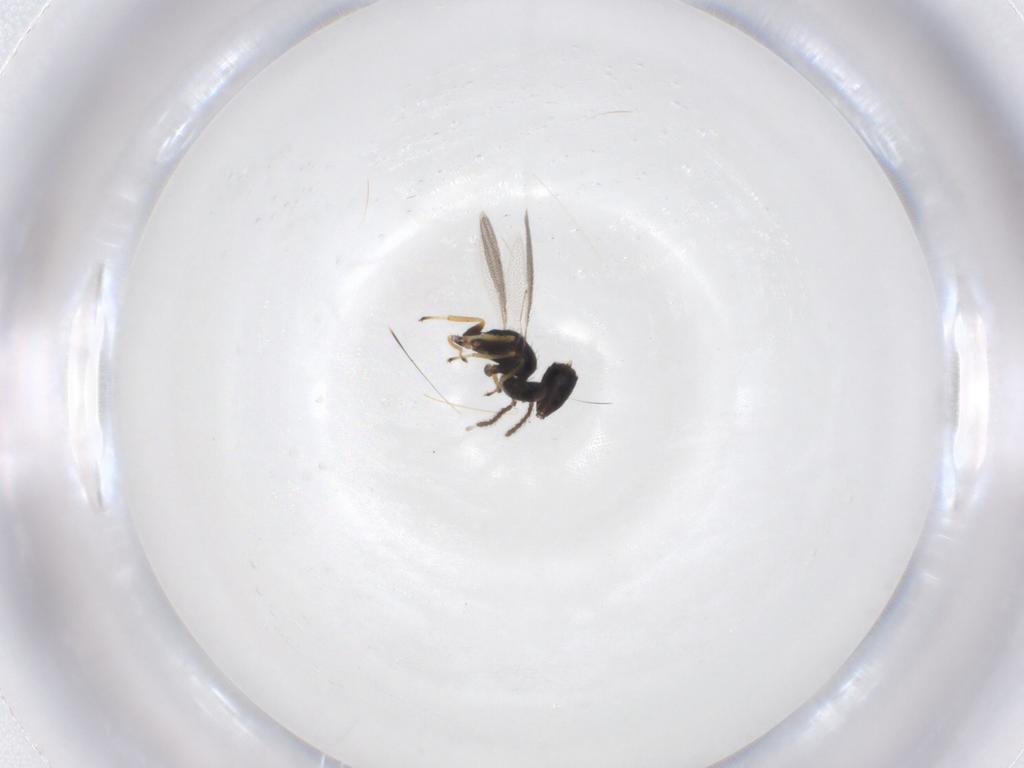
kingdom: Animalia
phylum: Arthropoda
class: Insecta
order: Hymenoptera
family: Eulophidae
